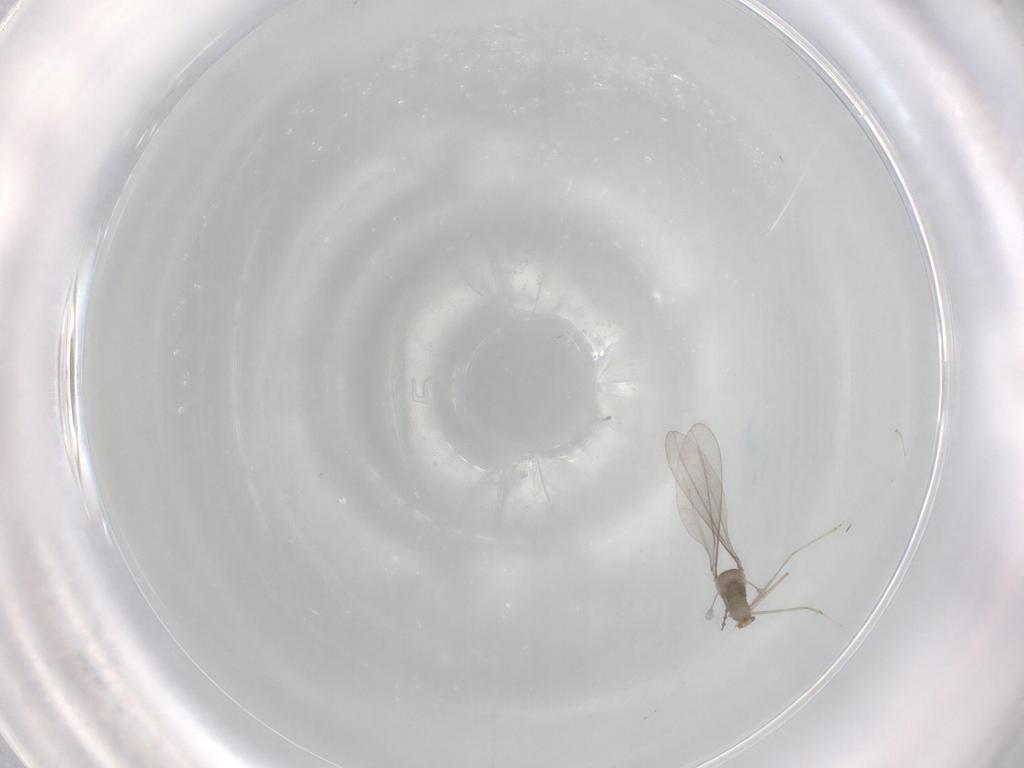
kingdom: Animalia
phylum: Arthropoda
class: Insecta
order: Diptera
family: Cecidomyiidae
